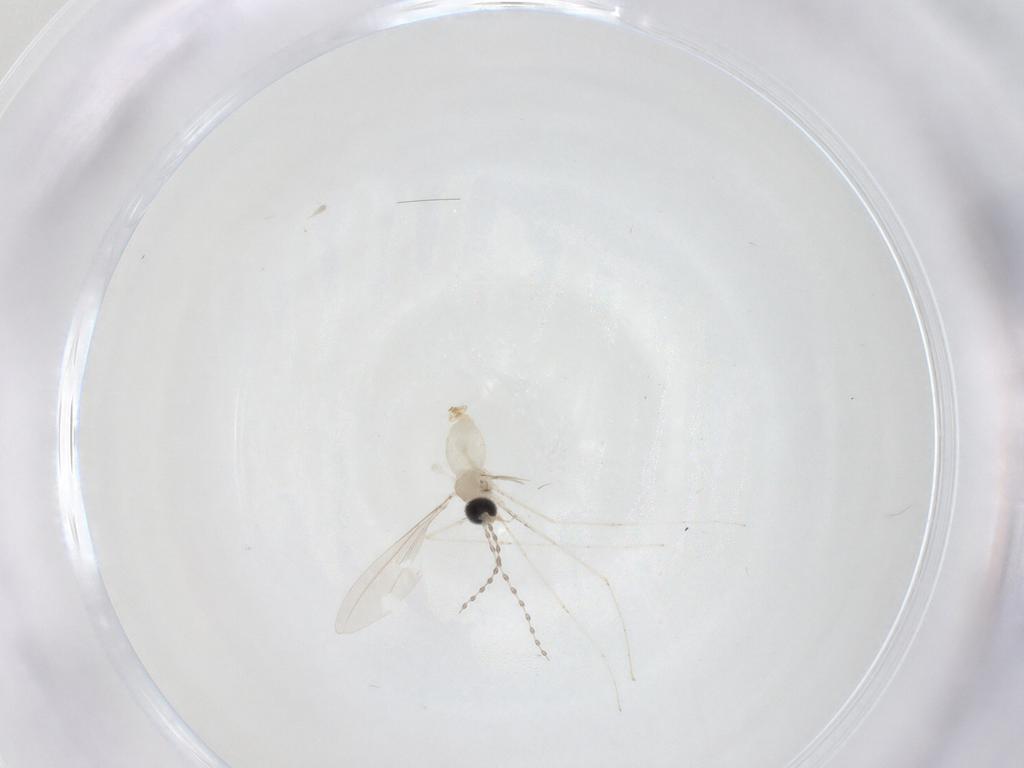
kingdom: Animalia
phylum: Arthropoda
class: Insecta
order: Diptera
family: Cecidomyiidae
